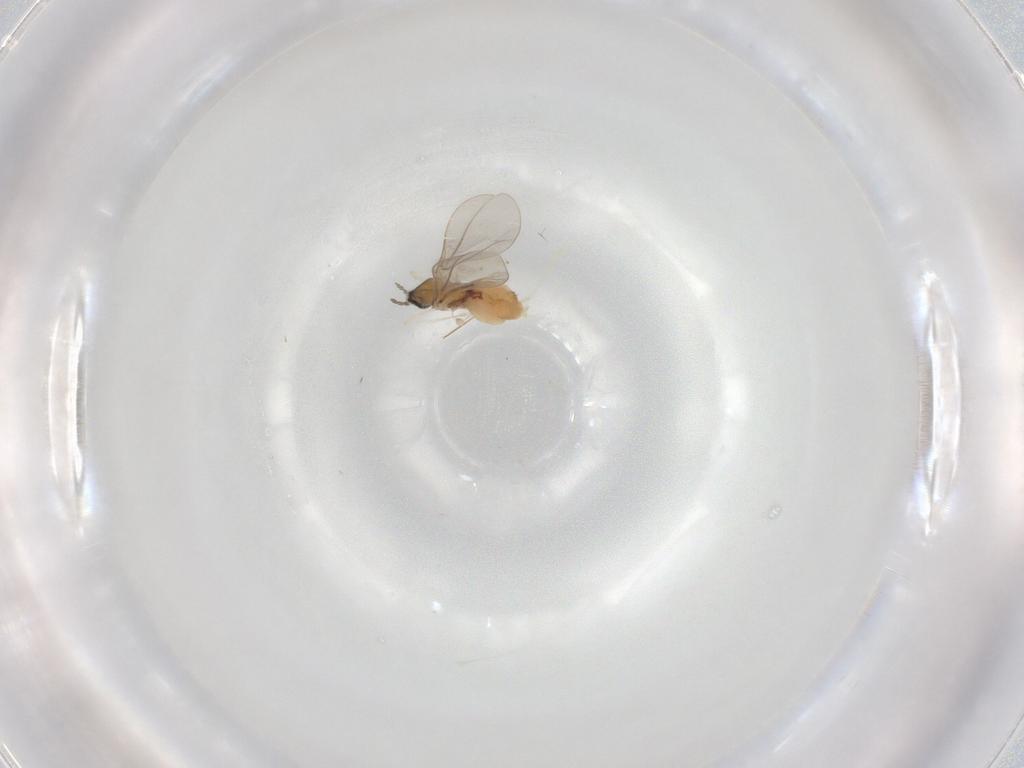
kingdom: Animalia
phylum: Arthropoda
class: Insecta
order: Diptera
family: Cecidomyiidae
